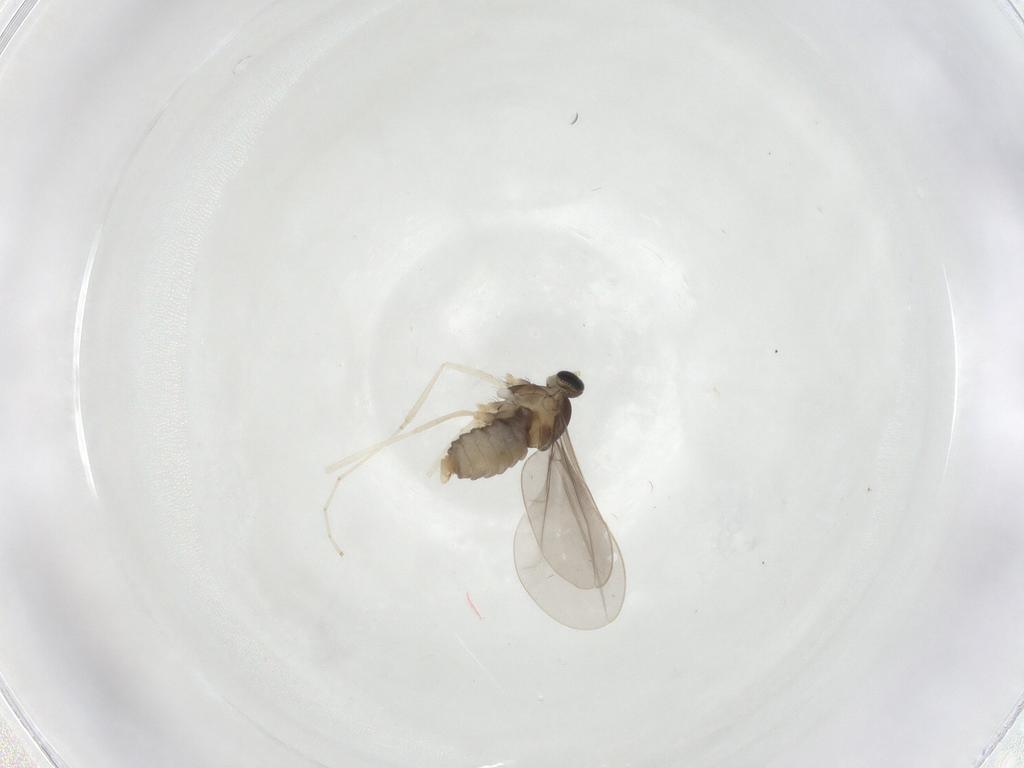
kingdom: Animalia
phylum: Arthropoda
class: Insecta
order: Diptera
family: Cecidomyiidae
